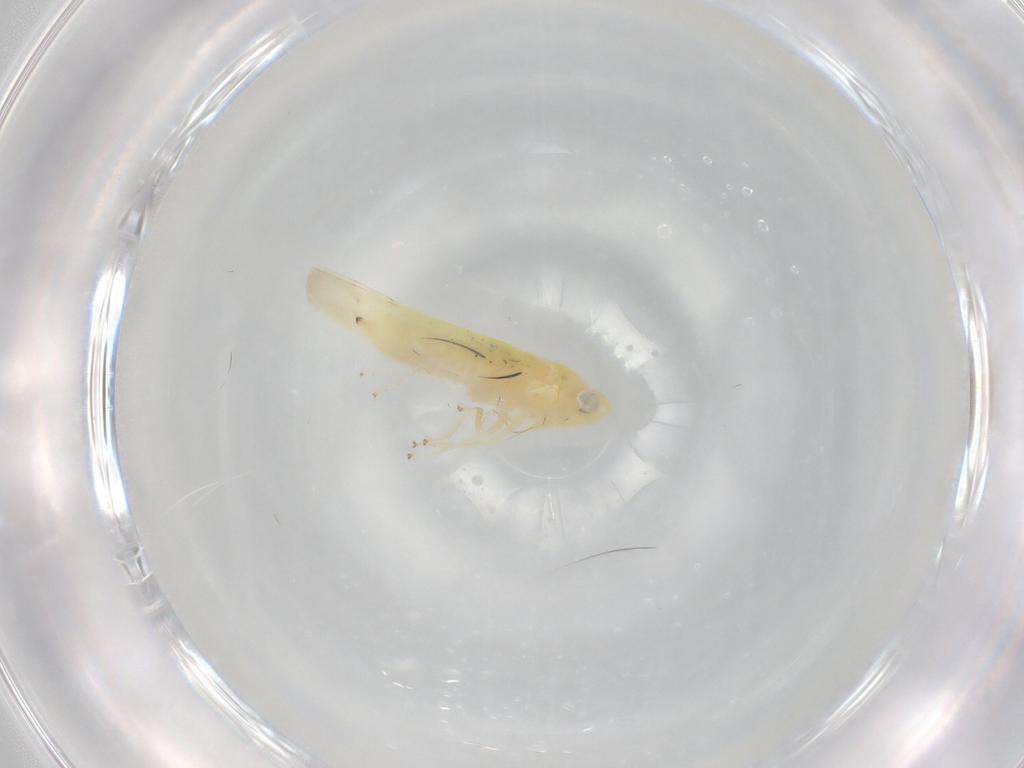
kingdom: Animalia
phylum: Arthropoda
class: Insecta
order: Hemiptera
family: Cicadellidae
